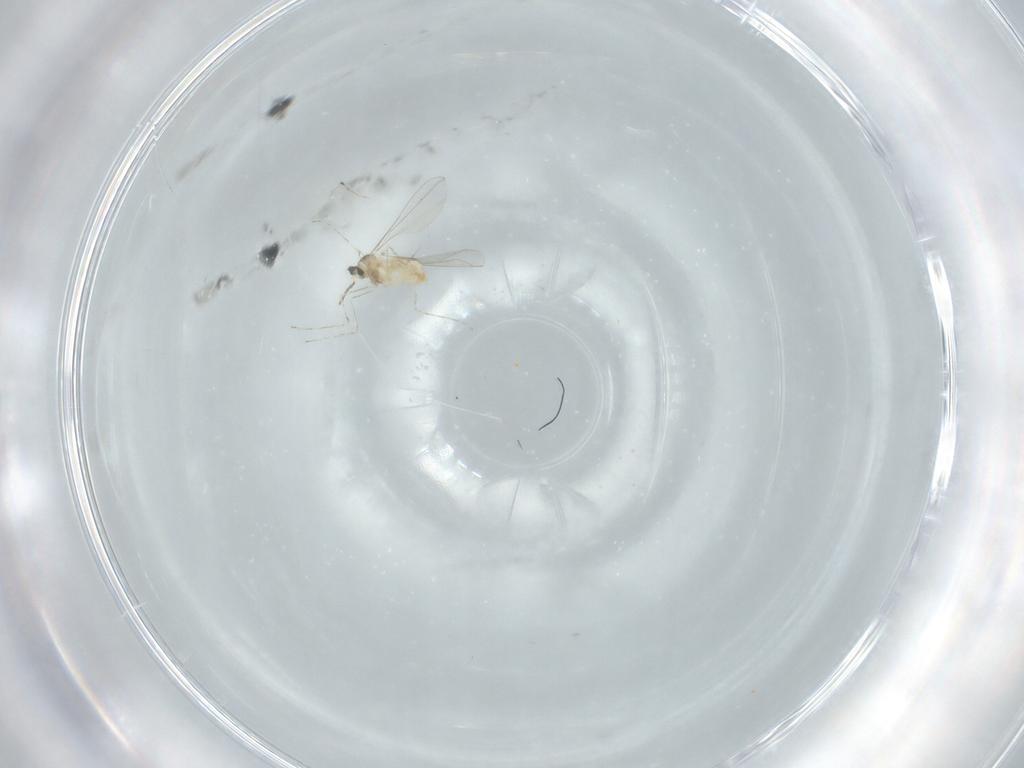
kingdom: Animalia
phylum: Arthropoda
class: Insecta
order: Diptera
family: Cecidomyiidae
